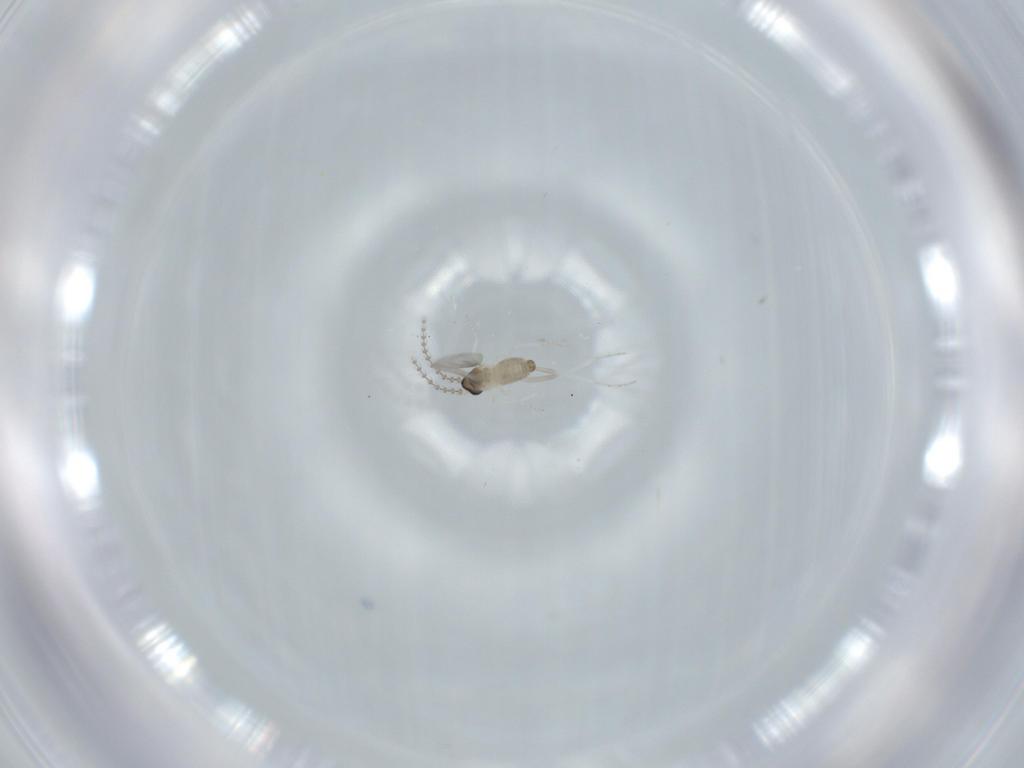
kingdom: Animalia
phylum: Arthropoda
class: Insecta
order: Diptera
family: Cecidomyiidae
